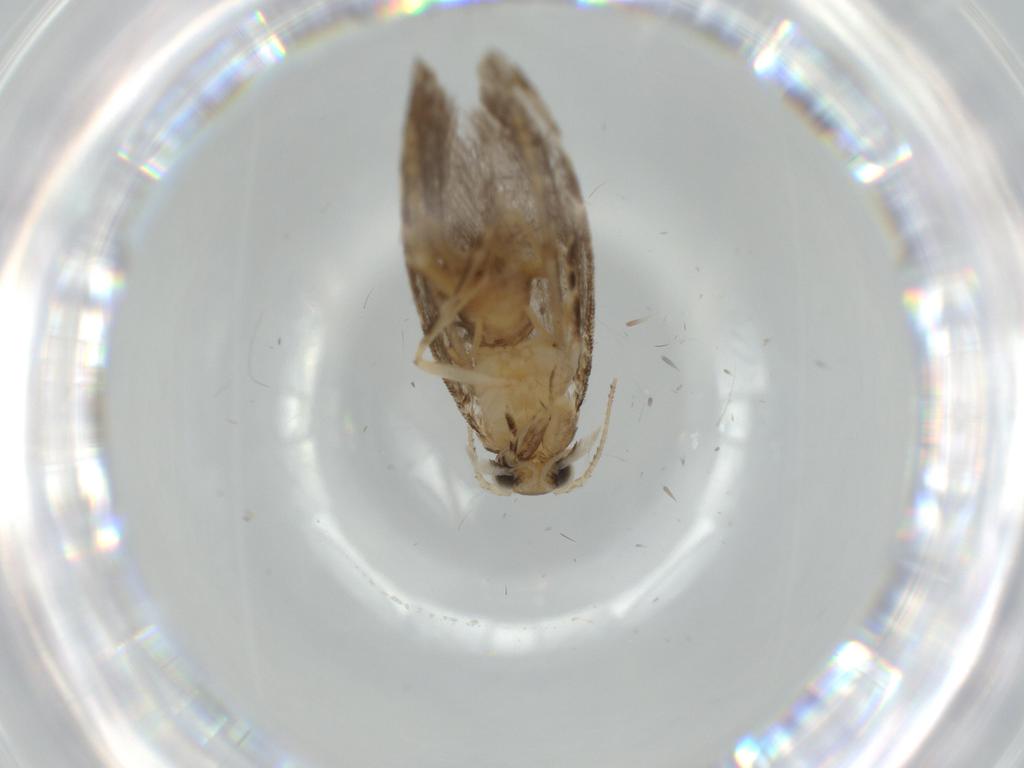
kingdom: Animalia
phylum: Arthropoda
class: Insecta
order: Lepidoptera
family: Tineidae
